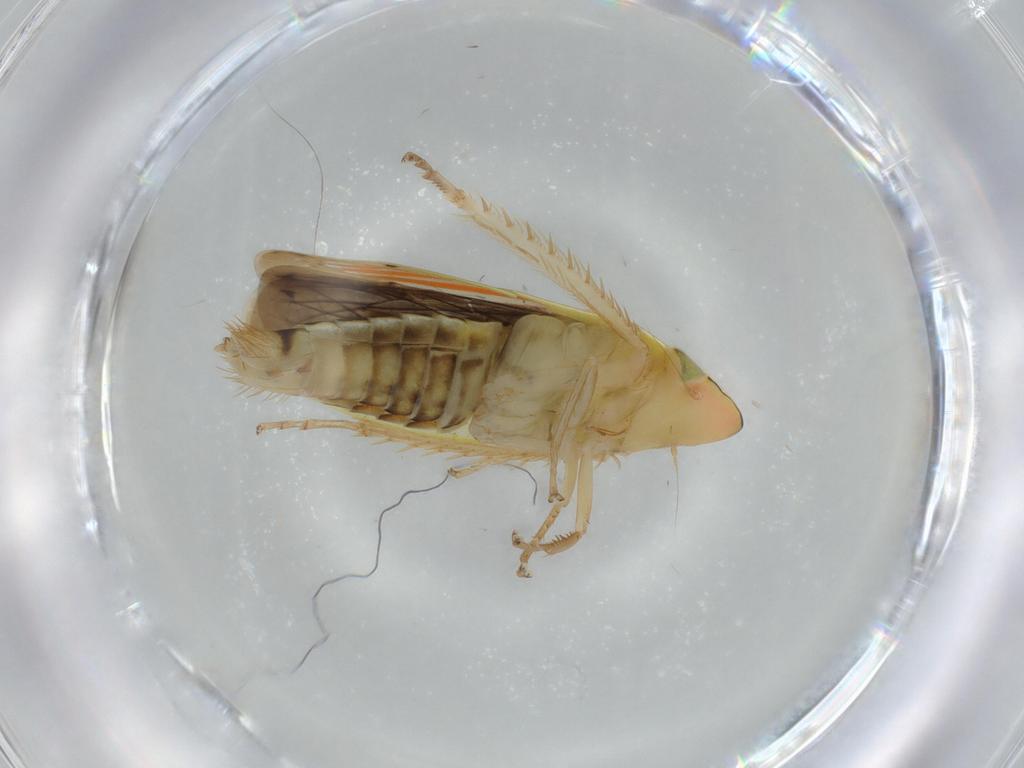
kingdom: Animalia
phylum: Arthropoda
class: Insecta
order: Hemiptera
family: Cicadellidae
